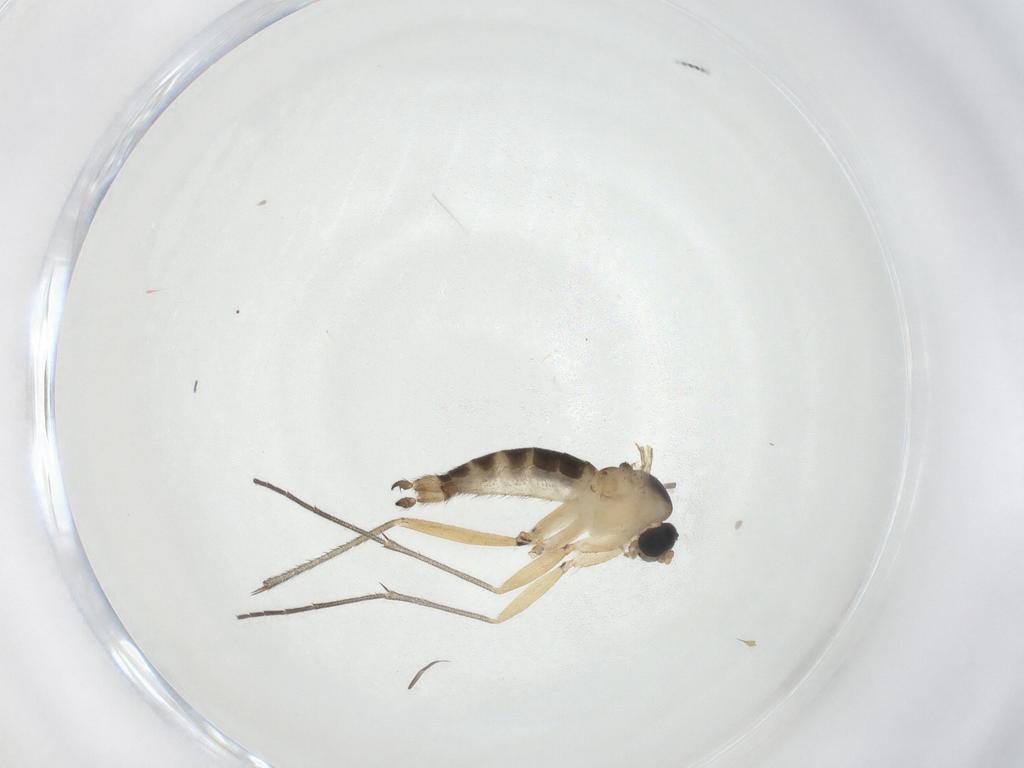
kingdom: Animalia
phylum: Arthropoda
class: Insecta
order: Diptera
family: Sciaridae
